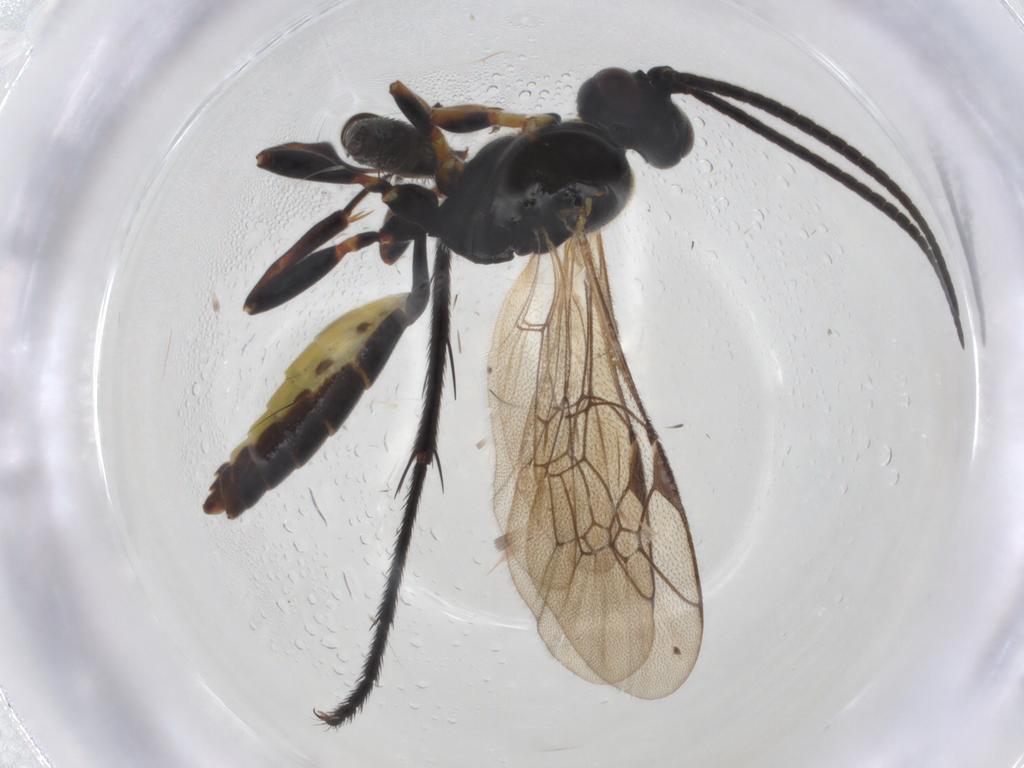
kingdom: Animalia
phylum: Arthropoda
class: Insecta
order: Hymenoptera
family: Ichneumonidae
